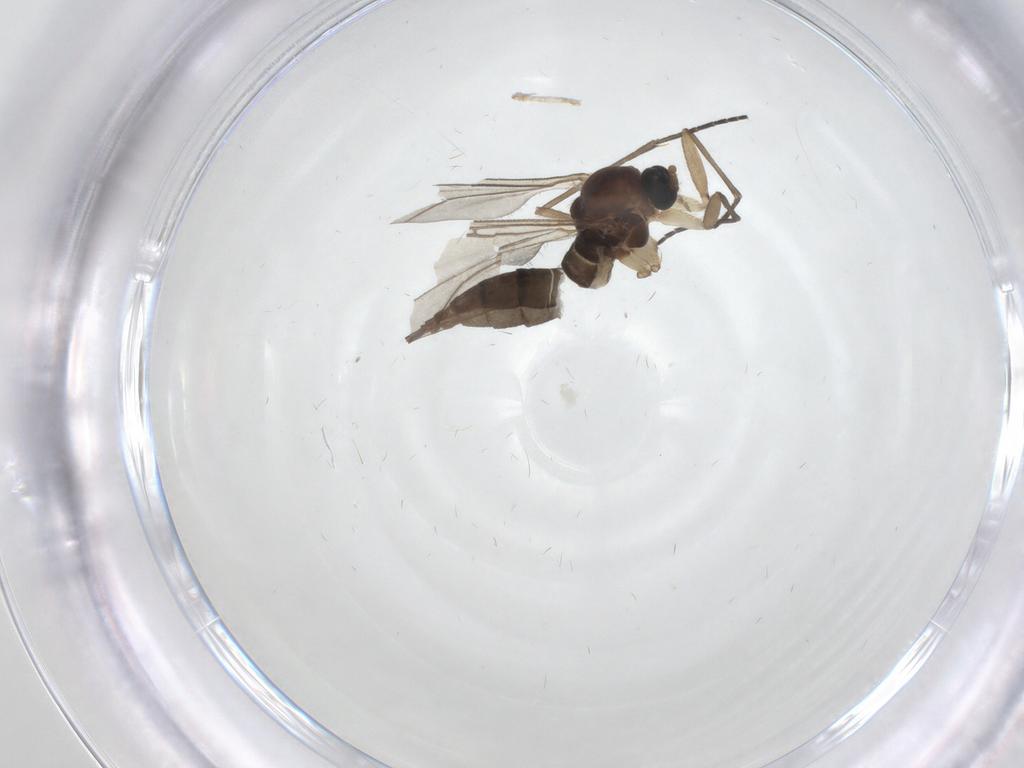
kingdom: Animalia
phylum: Arthropoda
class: Insecta
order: Diptera
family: Sciaridae
